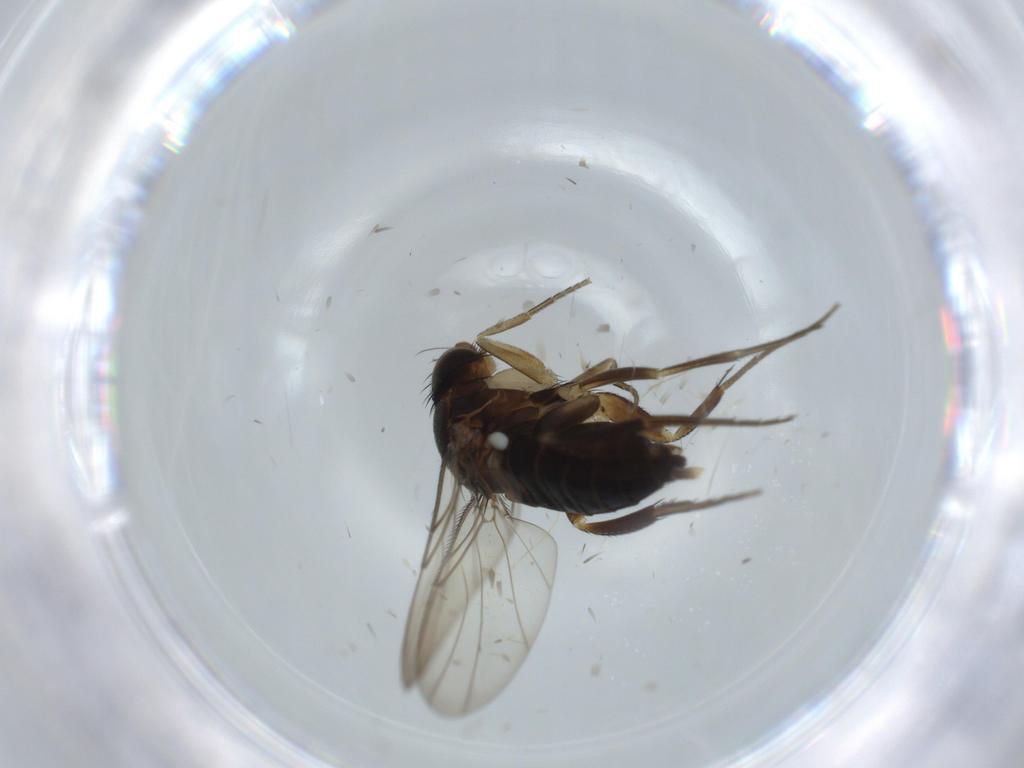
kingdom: Animalia
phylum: Arthropoda
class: Insecta
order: Diptera
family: Phoridae
